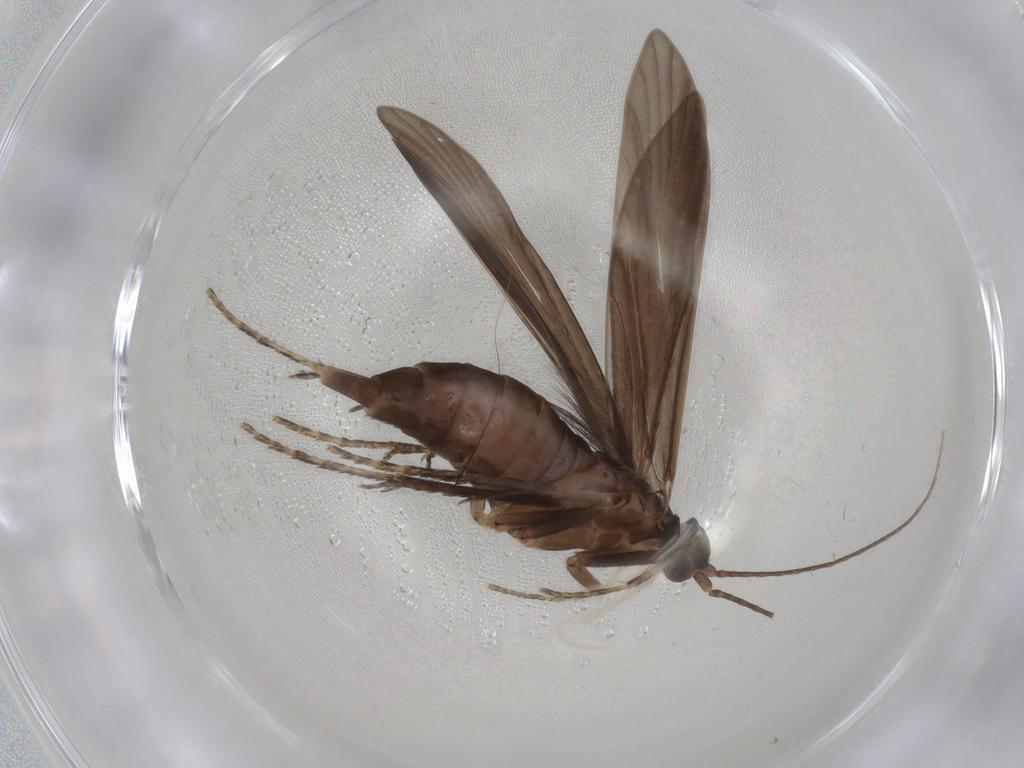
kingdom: Animalia
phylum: Arthropoda
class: Insecta
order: Trichoptera
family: Xiphocentronidae
